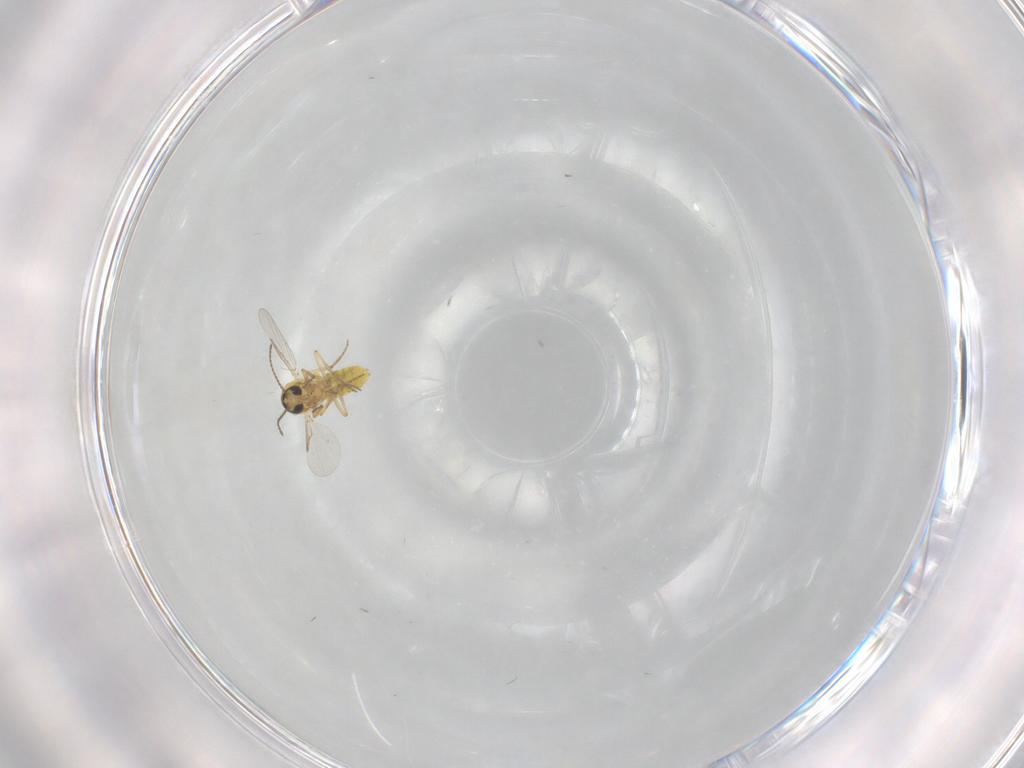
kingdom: Animalia
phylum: Arthropoda
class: Insecta
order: Diptera
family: Ceratopogonidae
